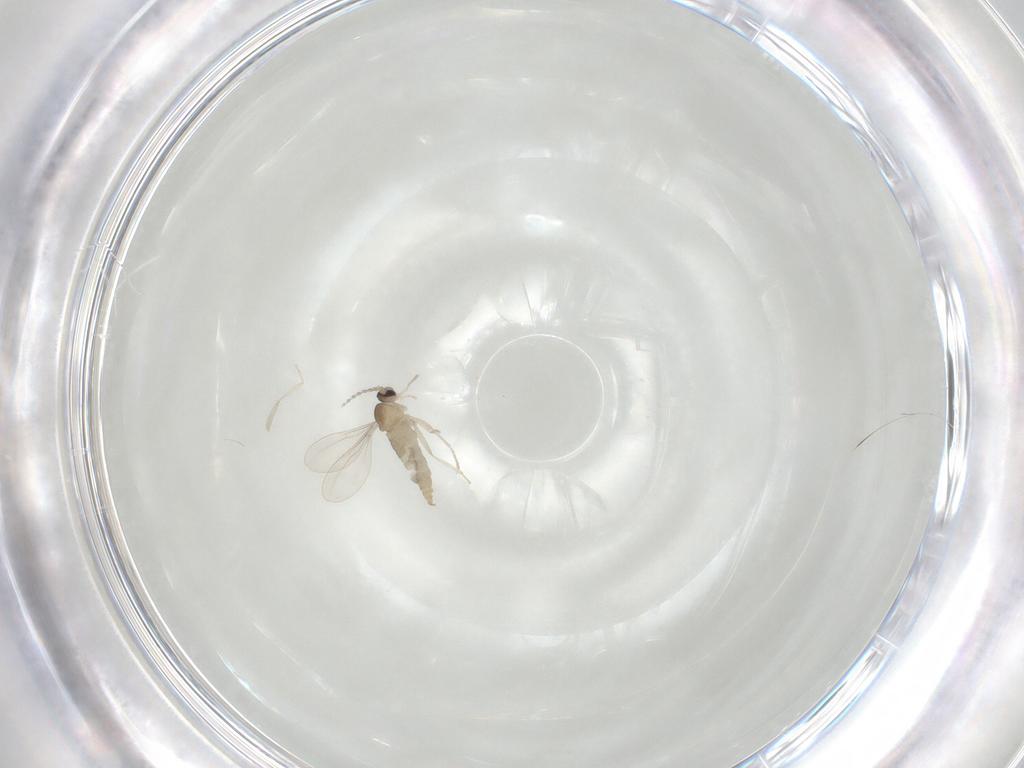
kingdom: Animalia
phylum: Arthropoda
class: Insecta
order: Diptera
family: Cecidomyiidae
